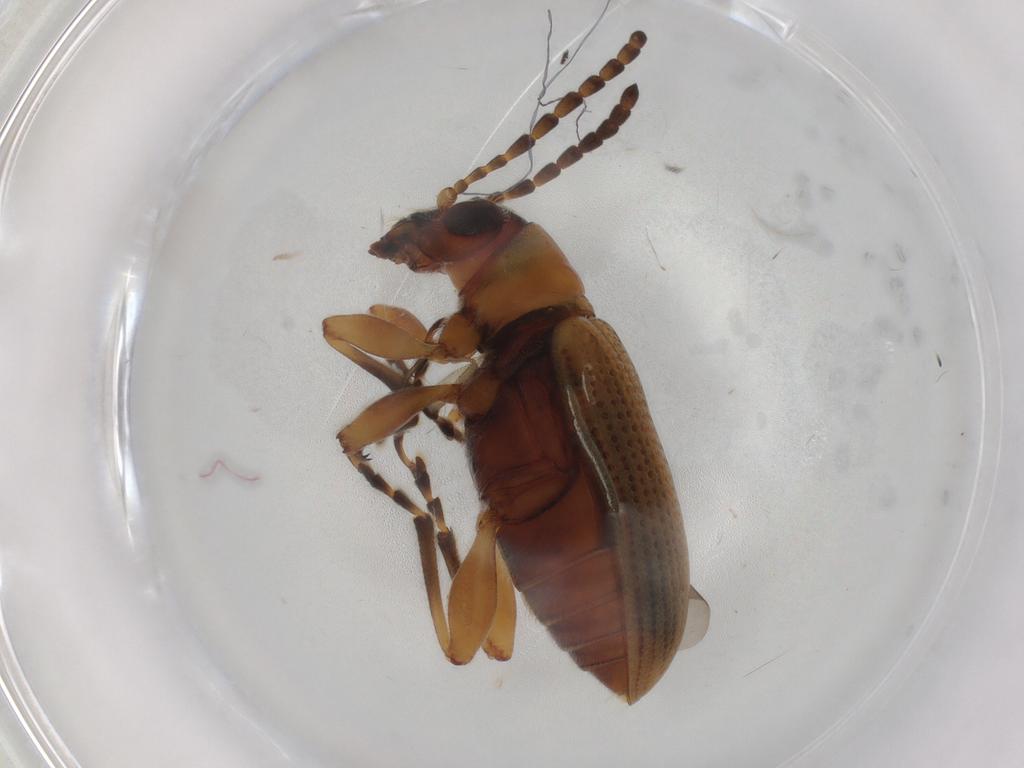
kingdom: Animalia
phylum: Arthropoda
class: Insecta
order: Coleoptera
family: Chrysomelidae
